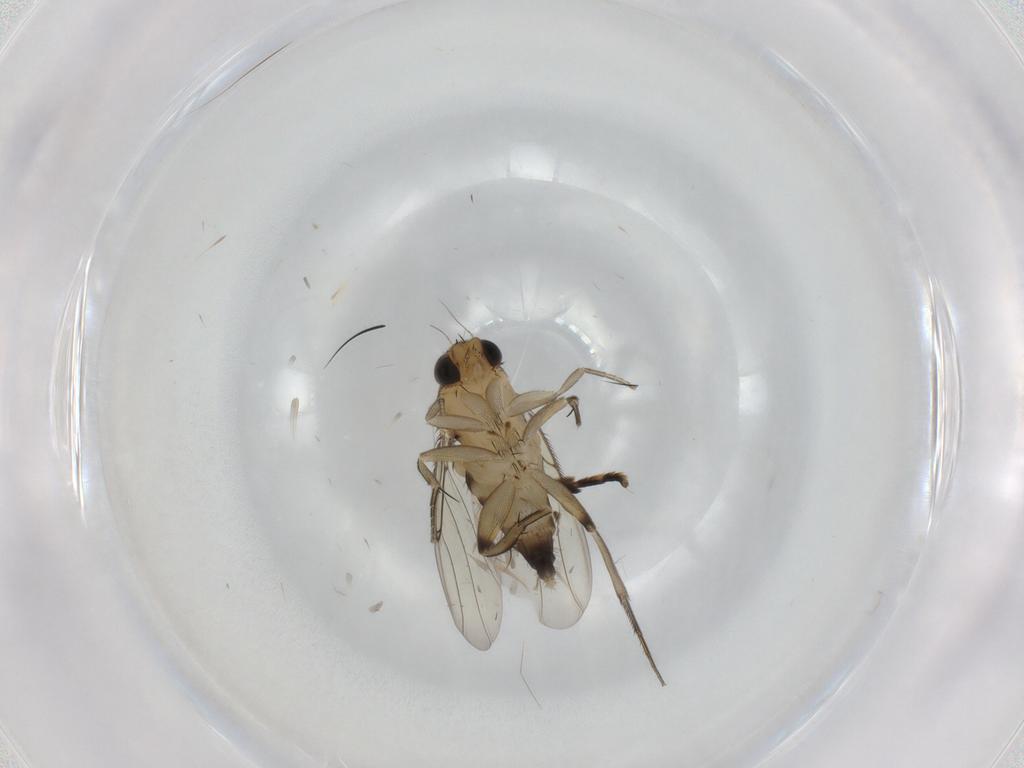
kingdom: Animalia
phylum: Arthropoda
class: Insecta
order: Diptera
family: Phoridae
